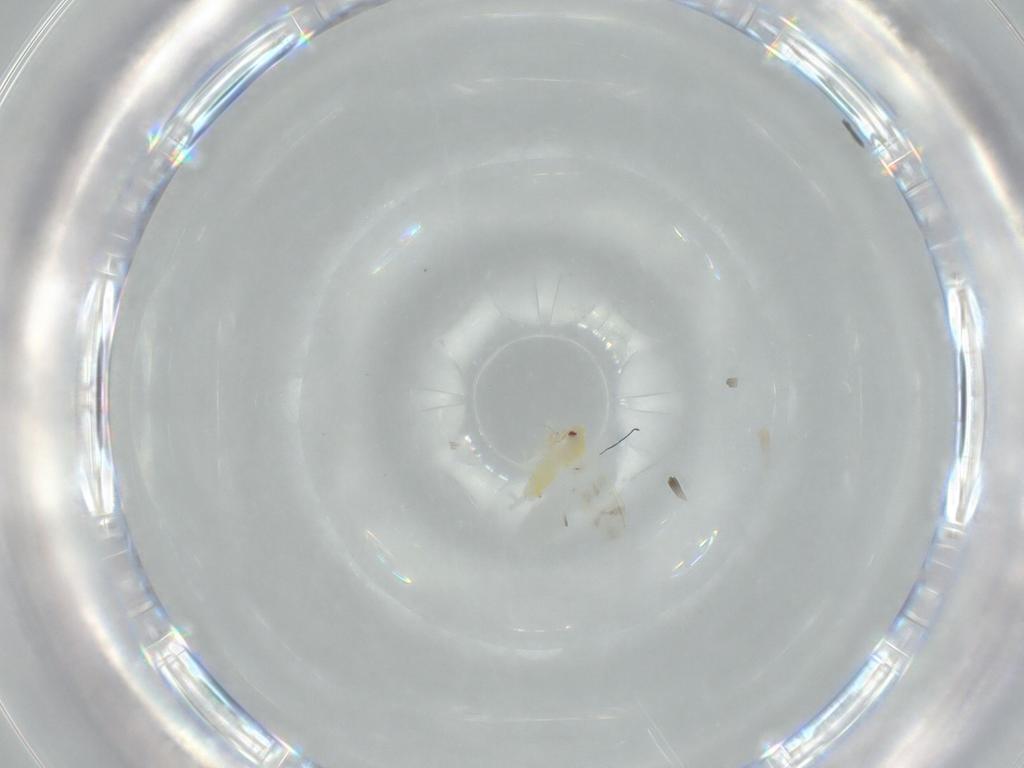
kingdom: Animalia
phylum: Arthropoda
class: Insecta
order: Hemiptera
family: Aleyrodidae
